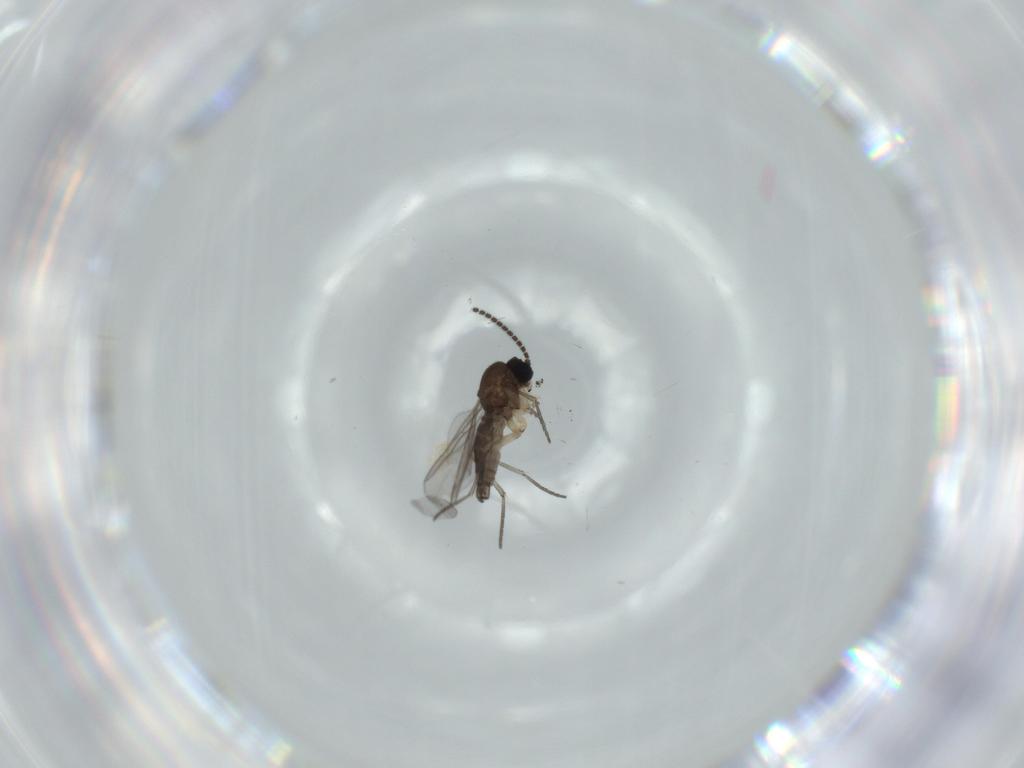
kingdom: Animalia
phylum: Arthropoda
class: Insecta
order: Diptera
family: Sciaridae
